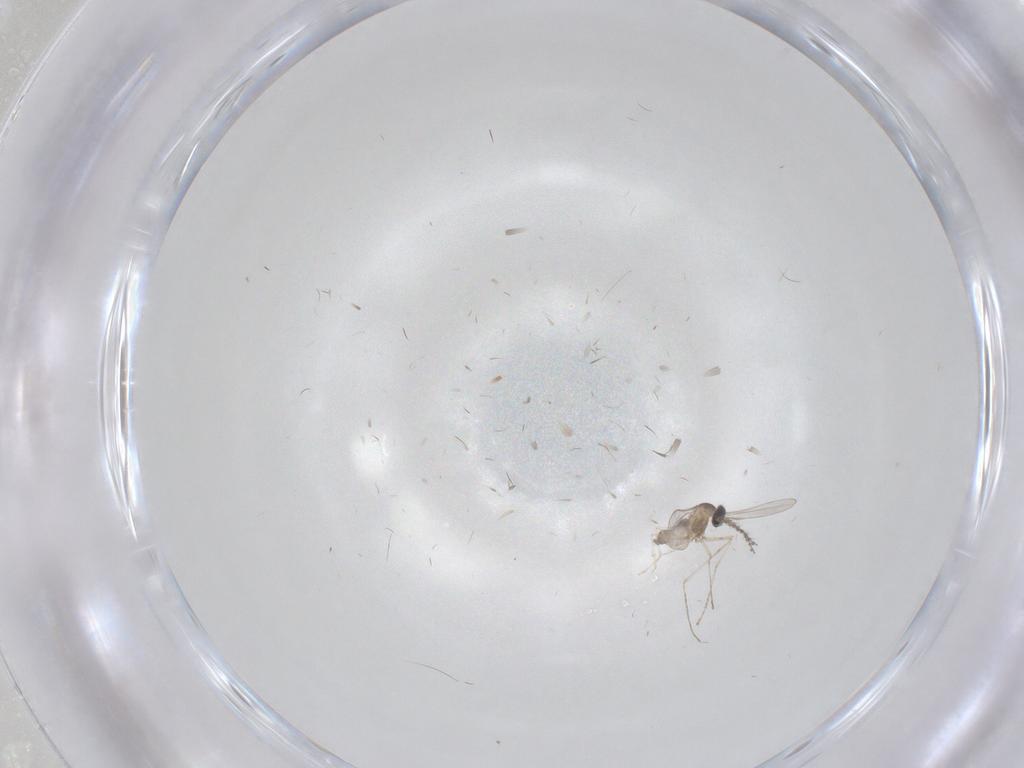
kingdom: Animalia
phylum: Arthropoda
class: Insecta
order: Diptera
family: Cecidomyiidae
